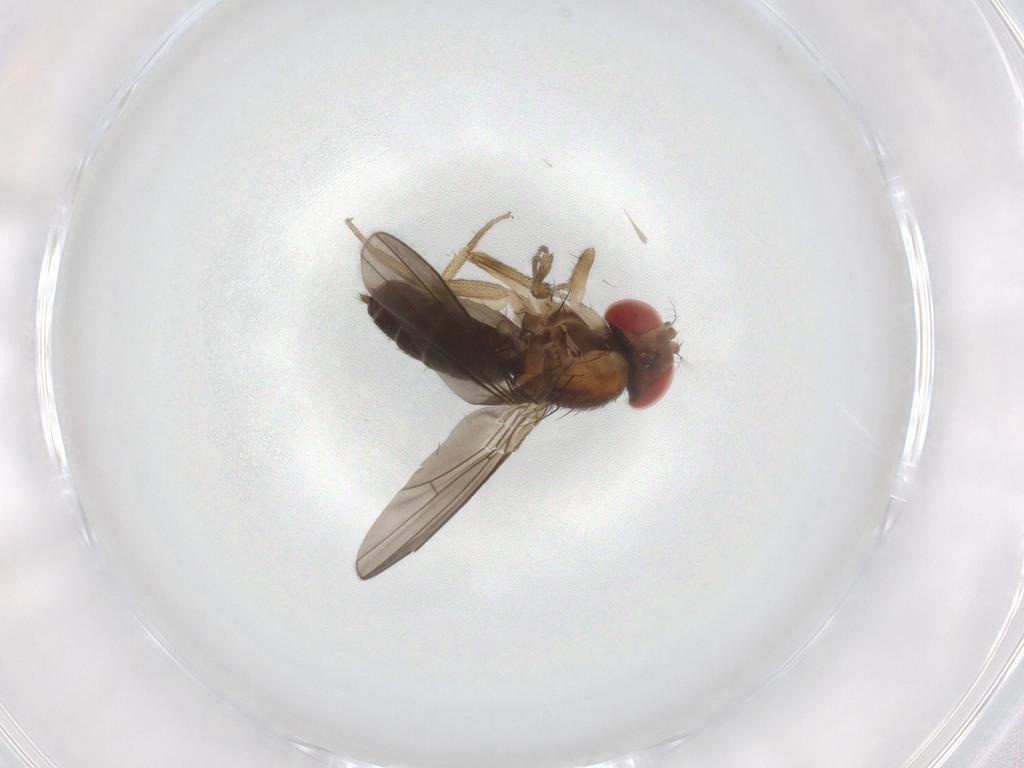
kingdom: Animalia
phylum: Arthropoda
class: Insecta
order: Diptera
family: Drosophilidae
